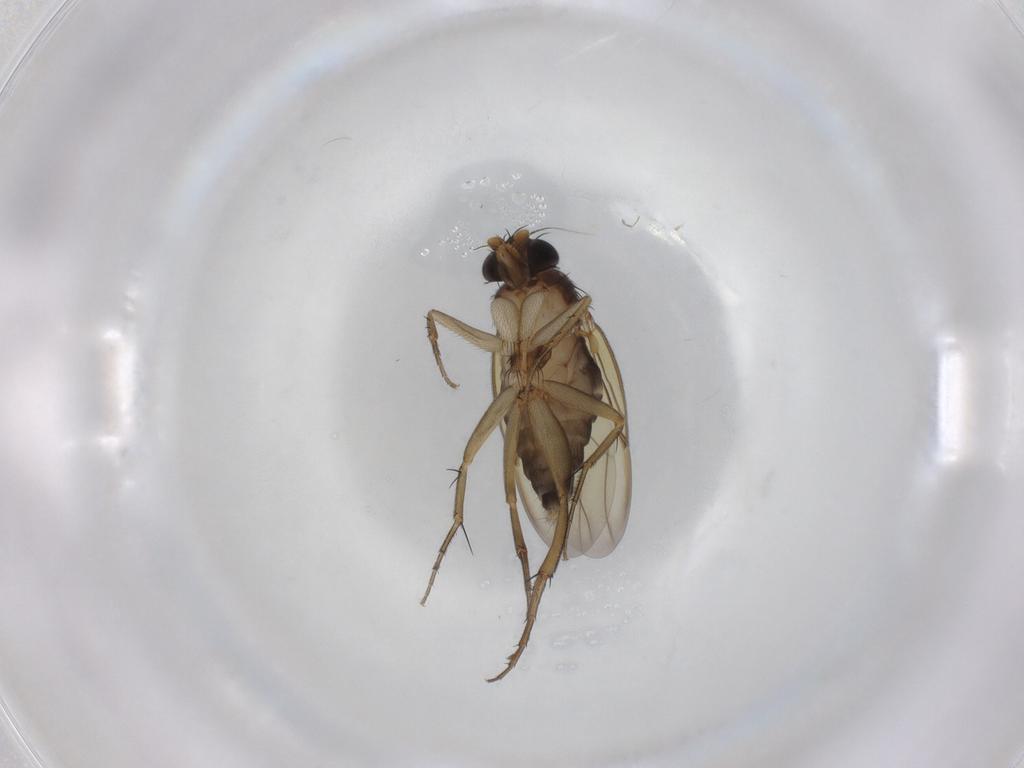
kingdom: Animalia
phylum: Arthropoda
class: Insecta
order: Diptera
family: Phoridae
